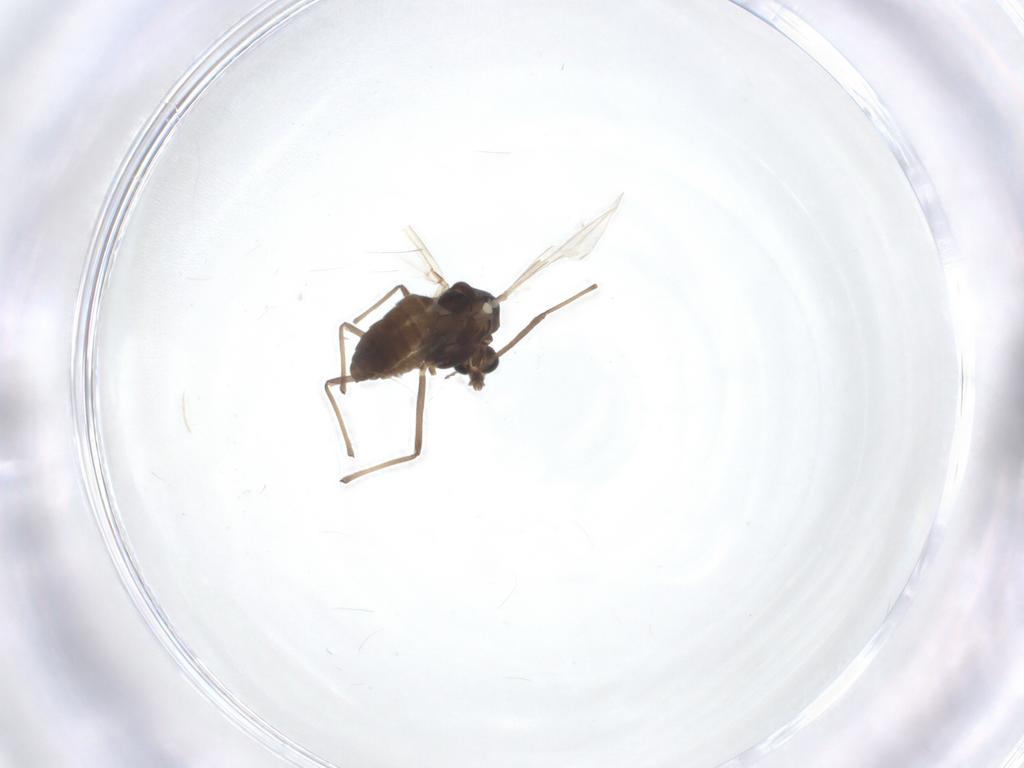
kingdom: Animalia
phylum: Arthropoda
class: Insecta
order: Diptera
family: Chironomidae
